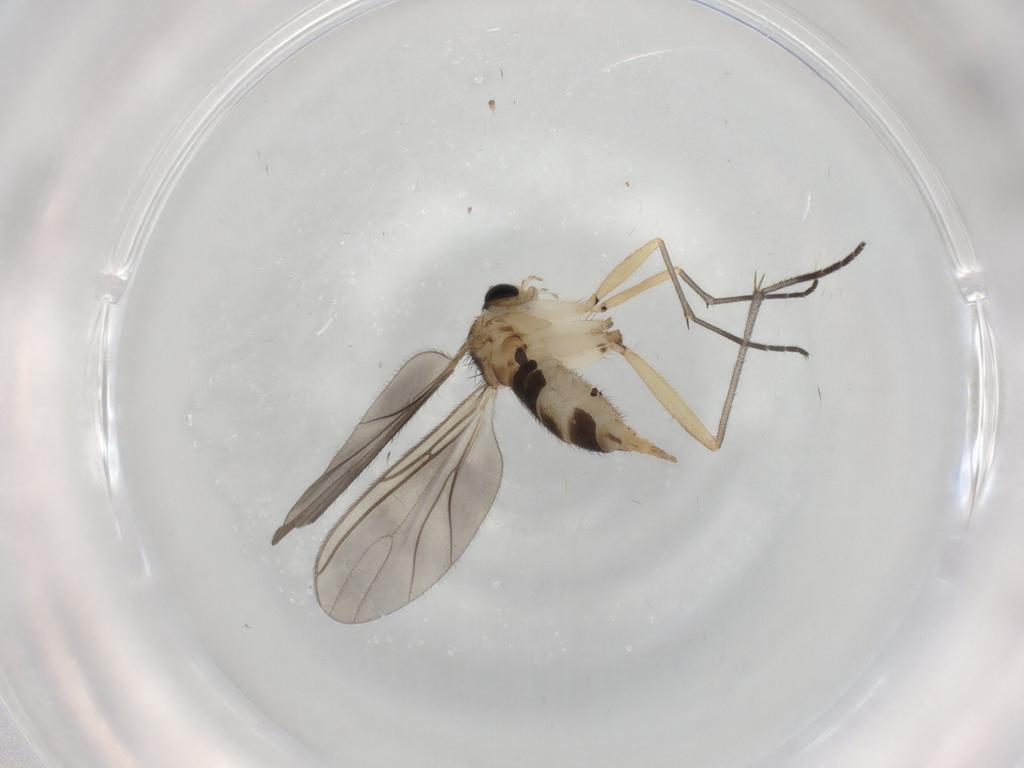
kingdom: Animalia
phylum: Arthropoda
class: Insecta
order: Diptera
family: Sciaridae
